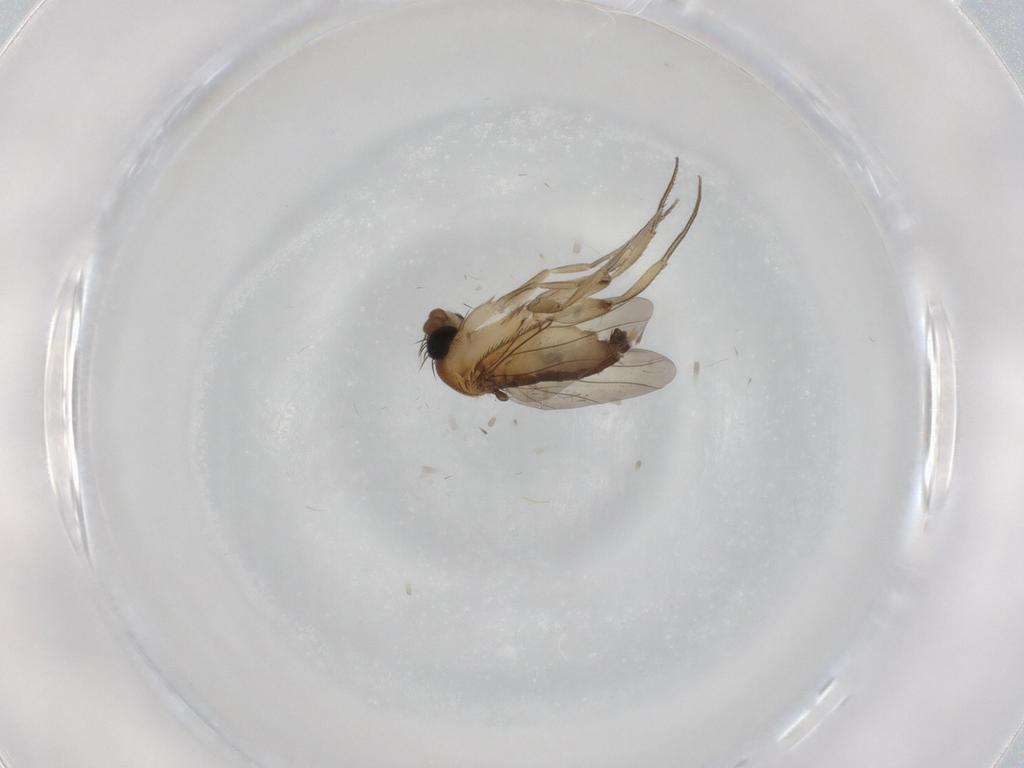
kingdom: Animalia
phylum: Arthropoda
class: Insecta
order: Diptera
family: Phoridae
